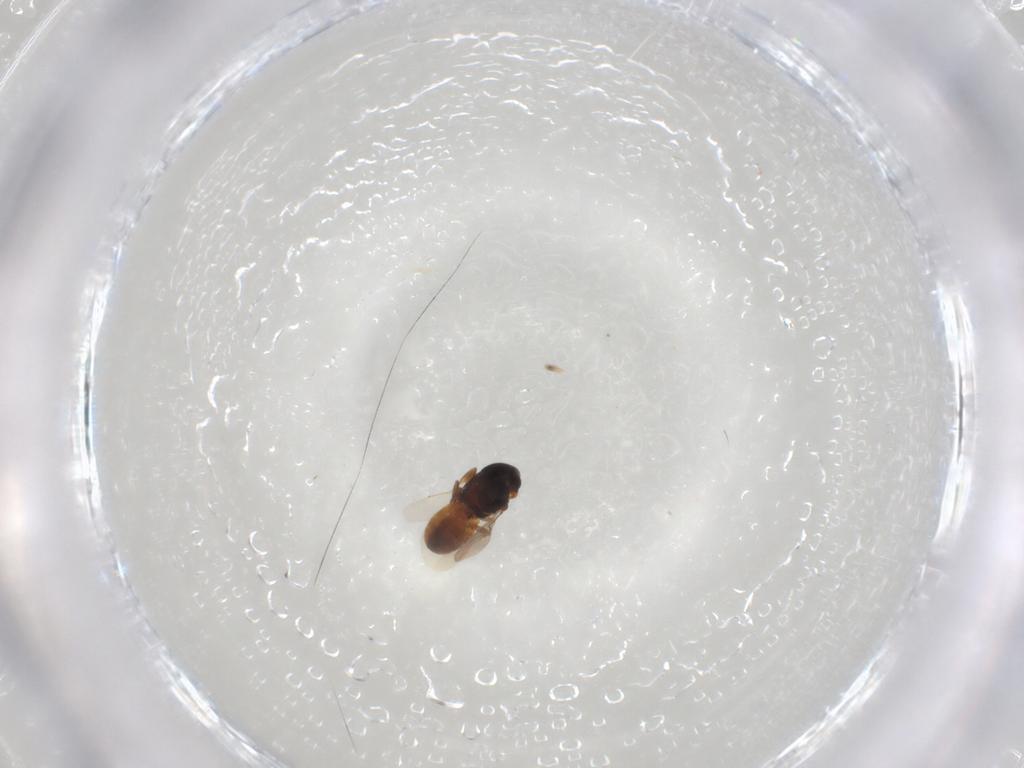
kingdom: Animalia
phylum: Arthropoda
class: Insecta
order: Hymenoptera
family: Scelionidae
